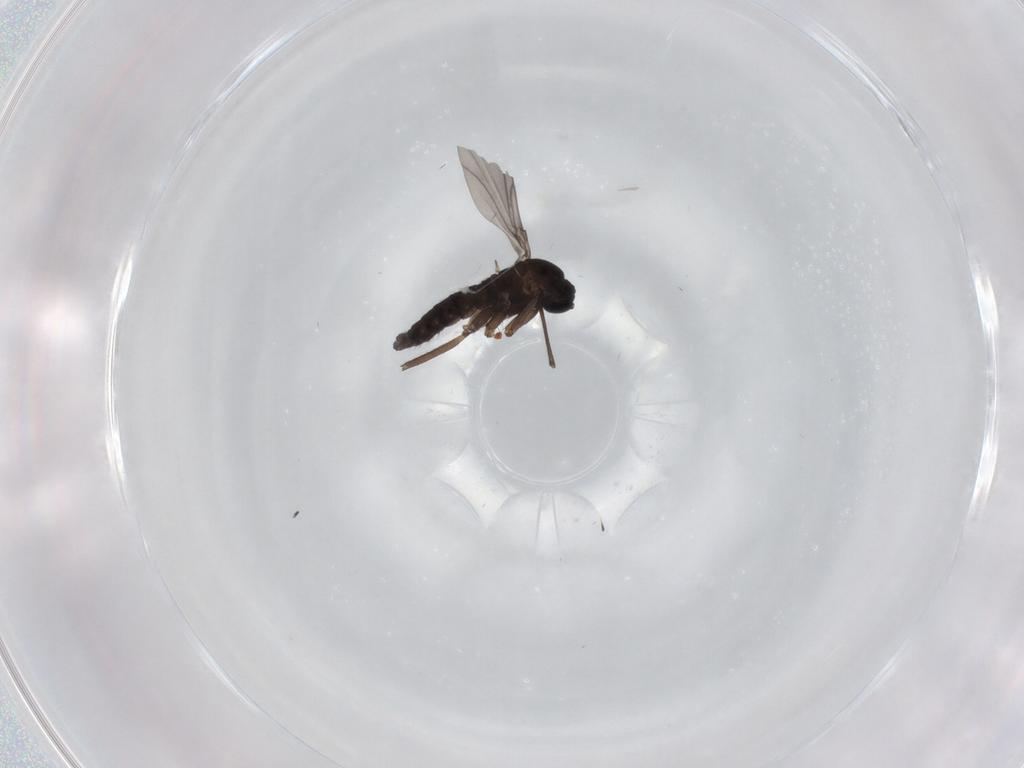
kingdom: Animalia
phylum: Arthropoda
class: Insecta
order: Diptera
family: Sciaridae
